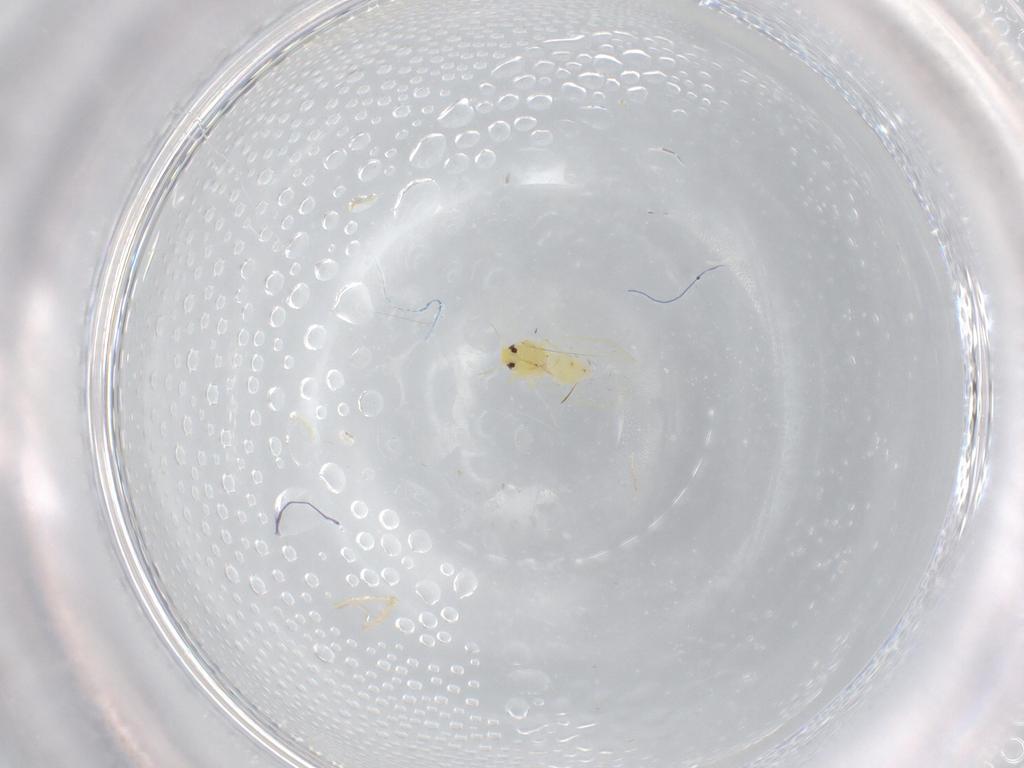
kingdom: Animalia
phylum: Arthropoda
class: Insecta
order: Hemiptera
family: Aleyrodidae
